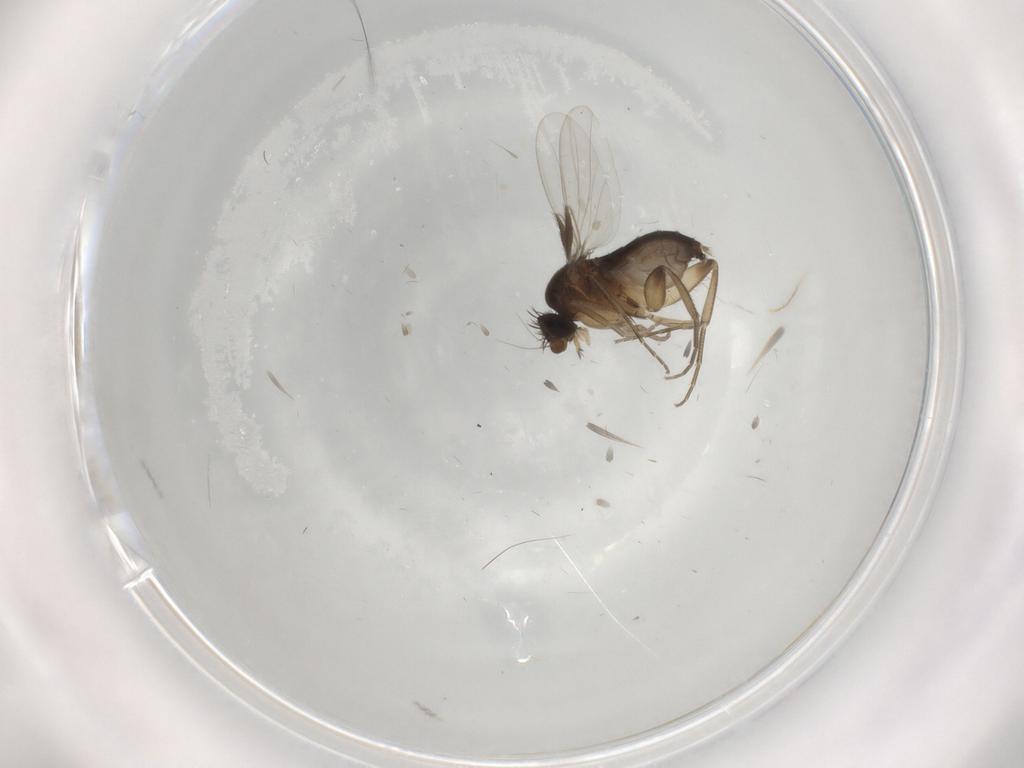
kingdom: Animalia
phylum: Arthropoda
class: Insecta
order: Diptera
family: Phoridae
